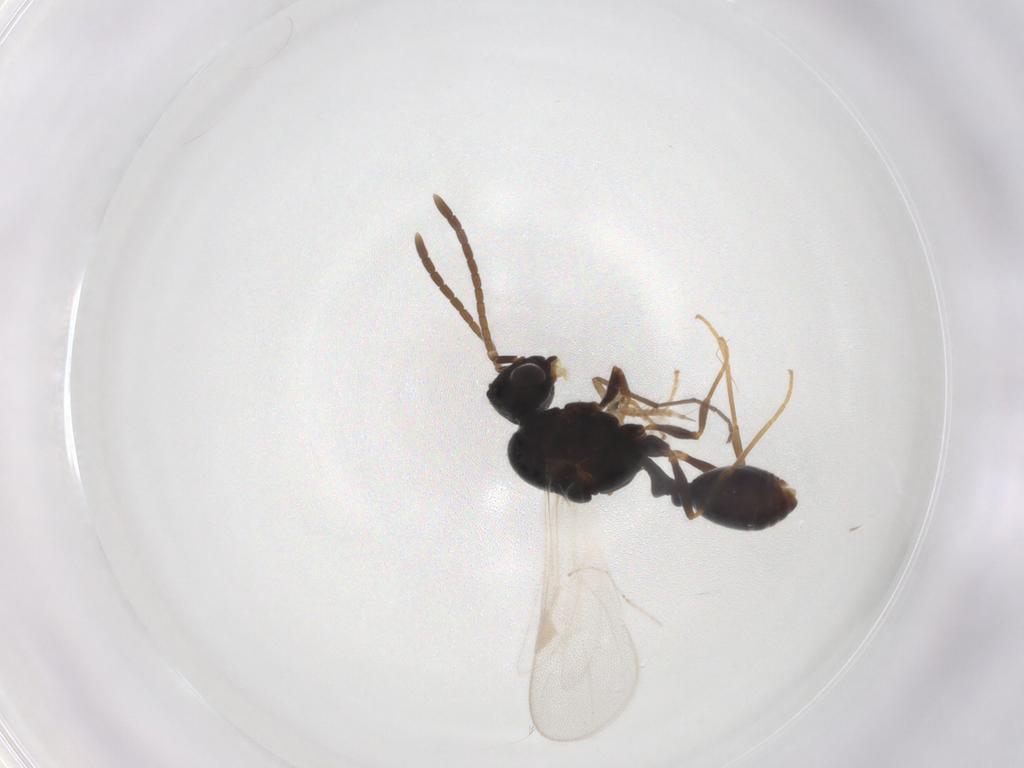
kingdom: Animalia
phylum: Arthropoda
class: Insecta
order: Hymenoptera
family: Formicidae
